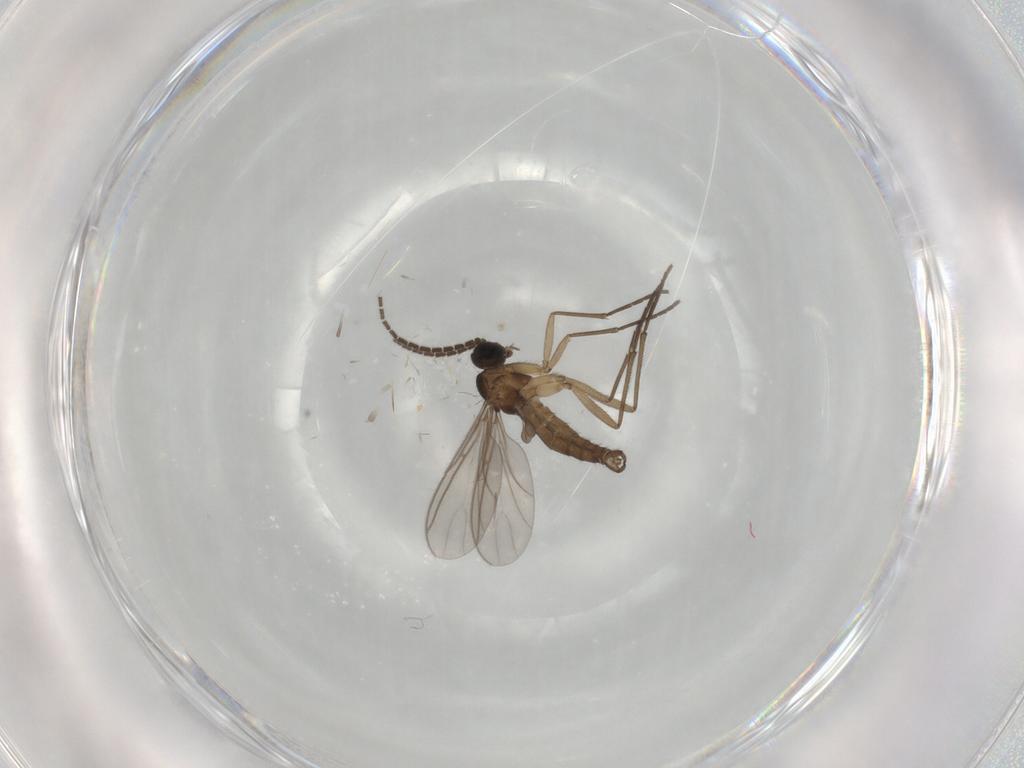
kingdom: Animalia
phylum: Arthropoda
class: Insecta
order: Diptera
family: Sciaridae
